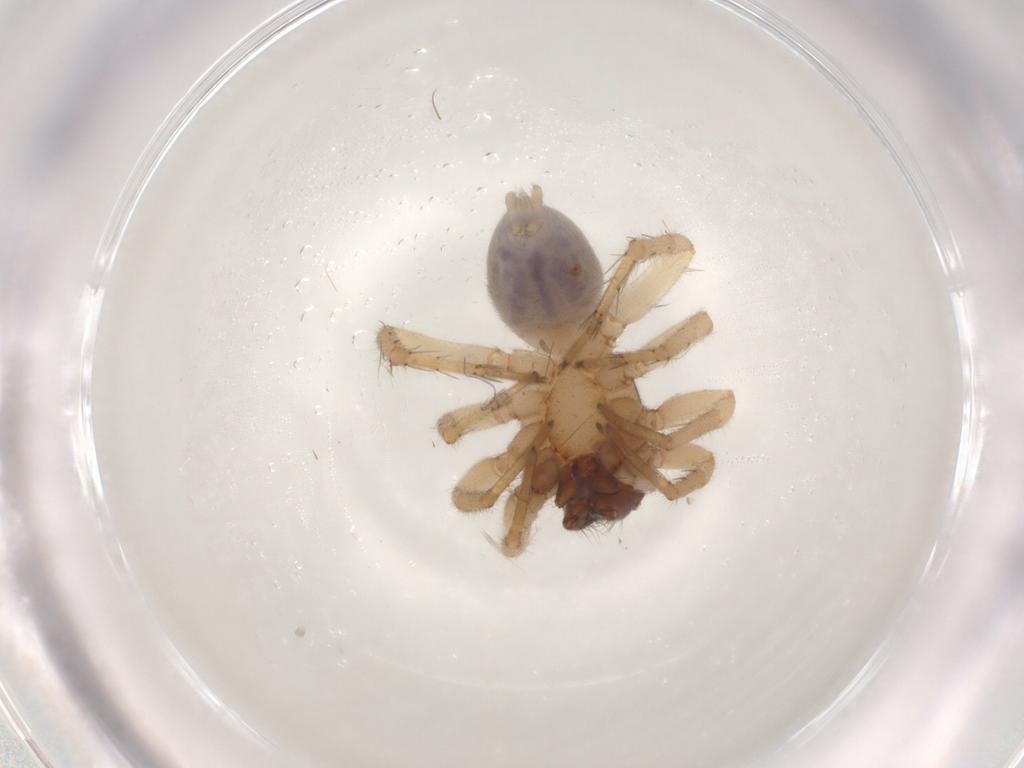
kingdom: Animalia
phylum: Arthropoda
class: Arachnida
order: Araneae
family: Clubionidae
